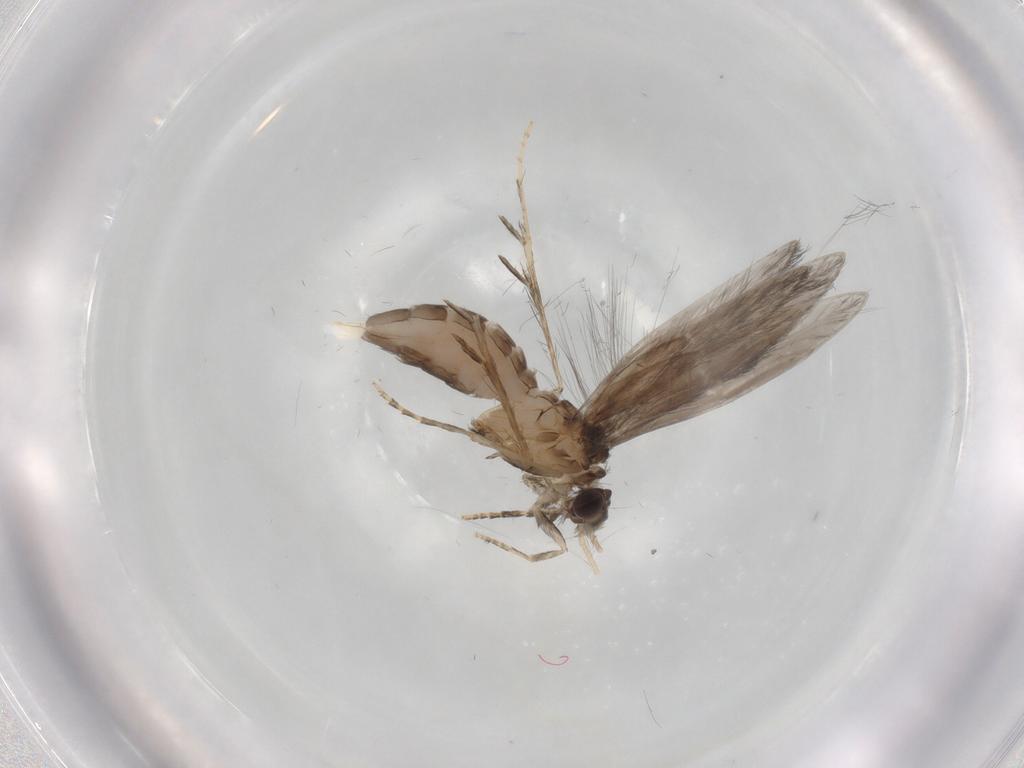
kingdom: Animalia
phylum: Arthropoda
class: Insecta
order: Trichoptera
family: Hydroptilidae
